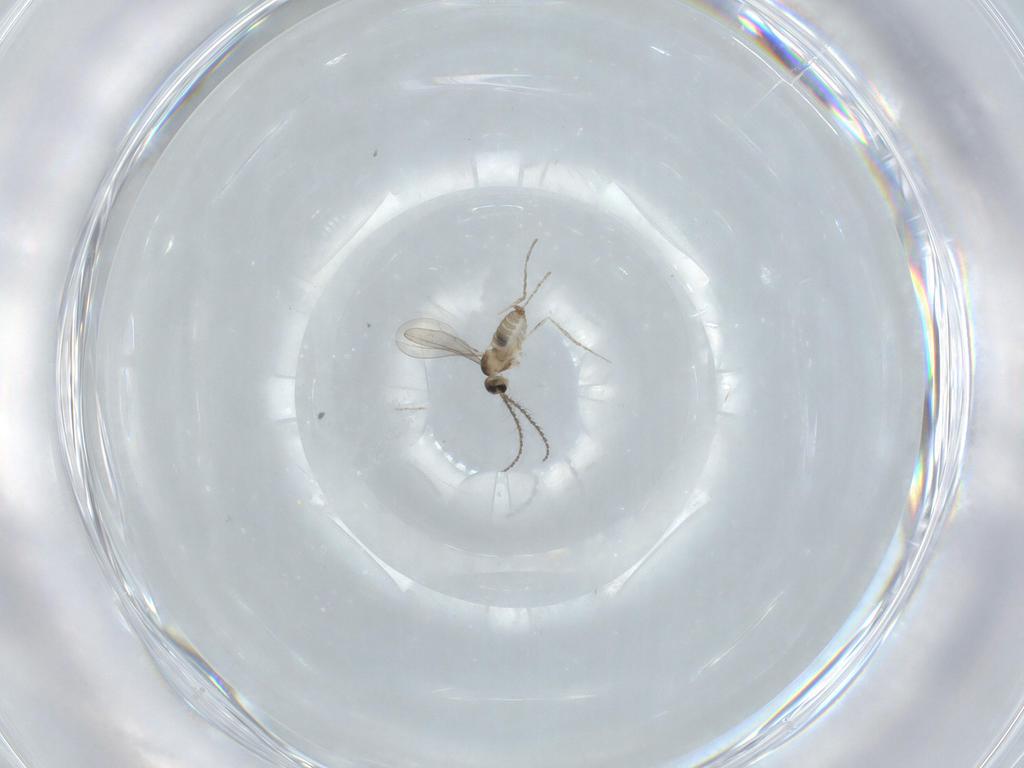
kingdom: Animalia
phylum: Arthropoda
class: Insecta
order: Diptera
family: Cecidomyiidae
